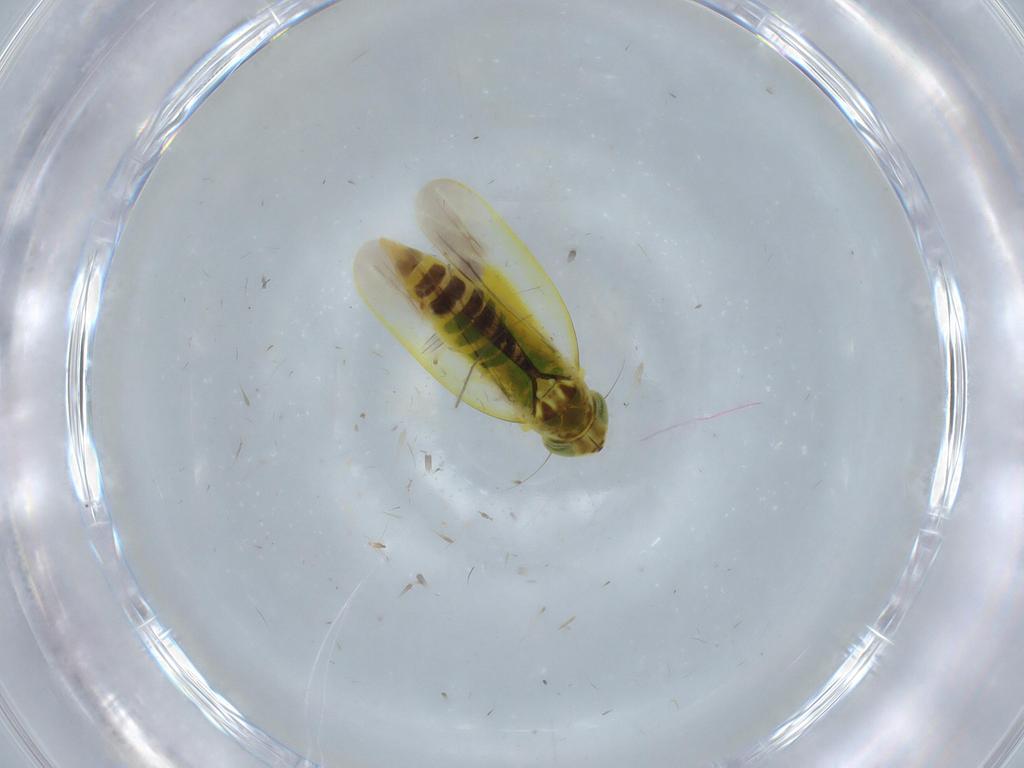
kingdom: Animalia
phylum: Arthropoda
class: Insecta
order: Hemiptera
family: Cicadellidae
